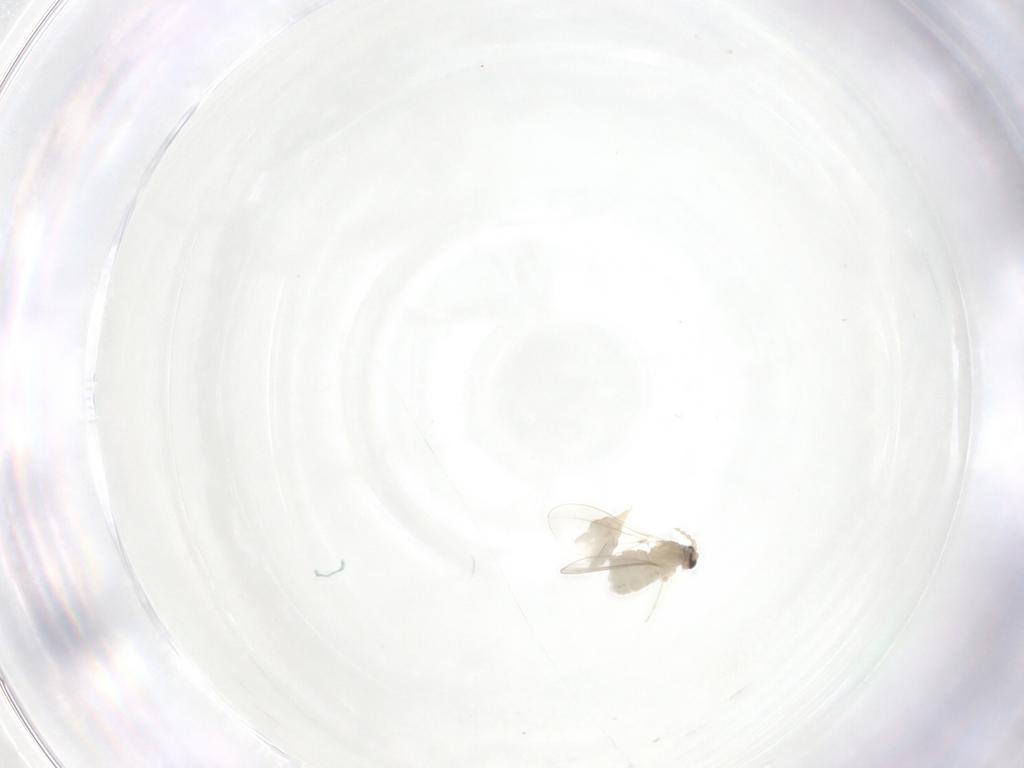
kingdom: Animalia
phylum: Arthropoda
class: Insecta
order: Diptera
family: Cecidomyiidae
